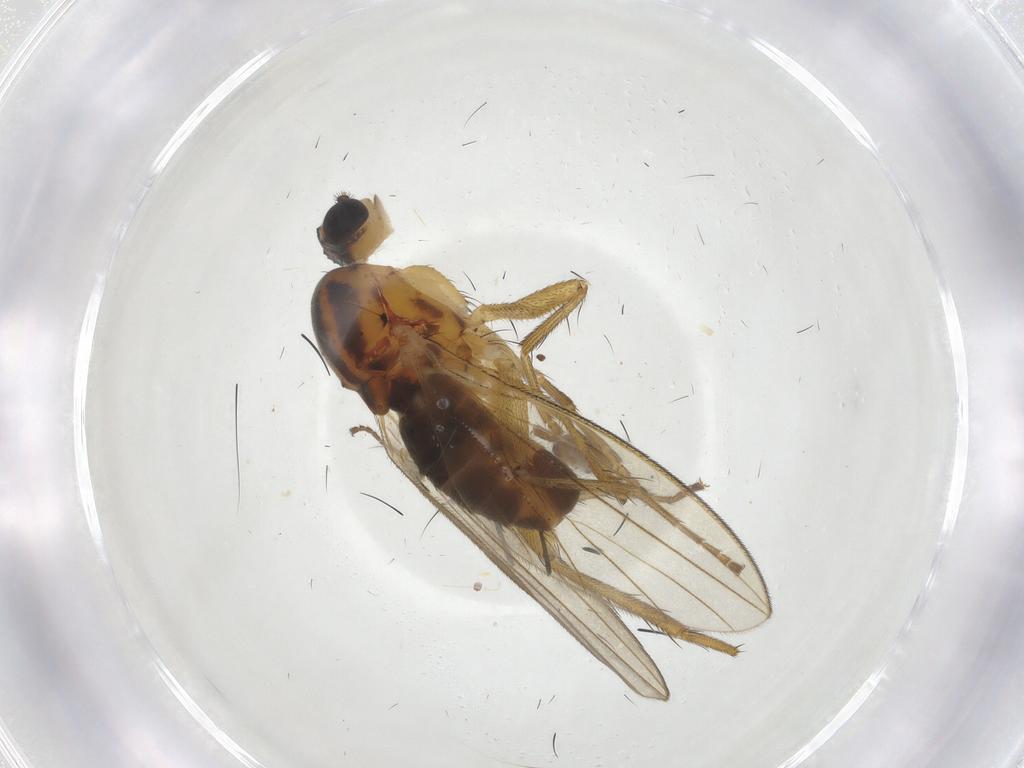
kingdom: Animalia
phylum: Arthropoda
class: Insecta
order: Diptera
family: Lonchopteridae
